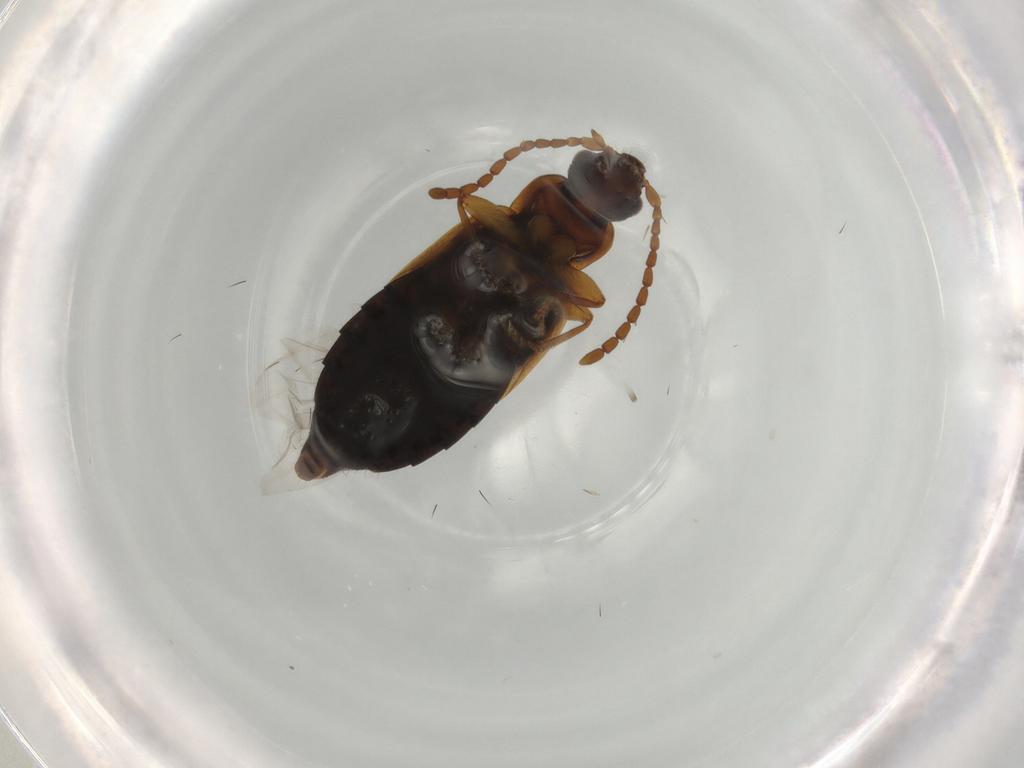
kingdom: Animalia
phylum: Arthropoda
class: Insecta
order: Coleoptera
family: Staphylinidae
